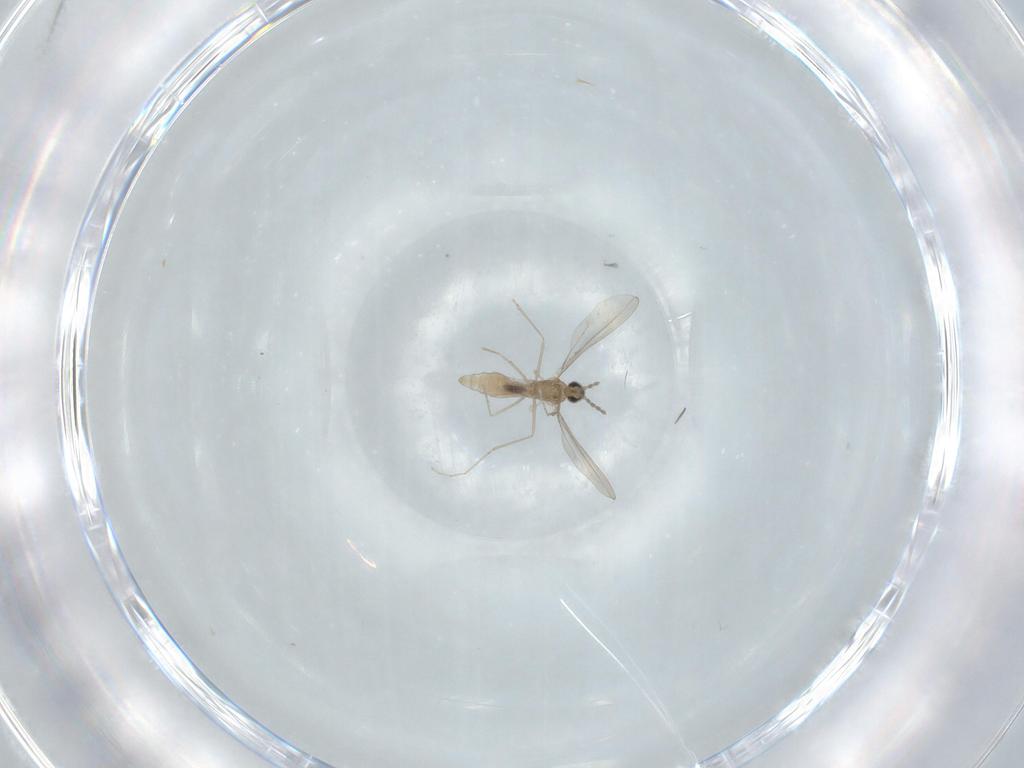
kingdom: Animalia
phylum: Arthropoda
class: Insecta
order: Diptera
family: Cecidomyiidae
